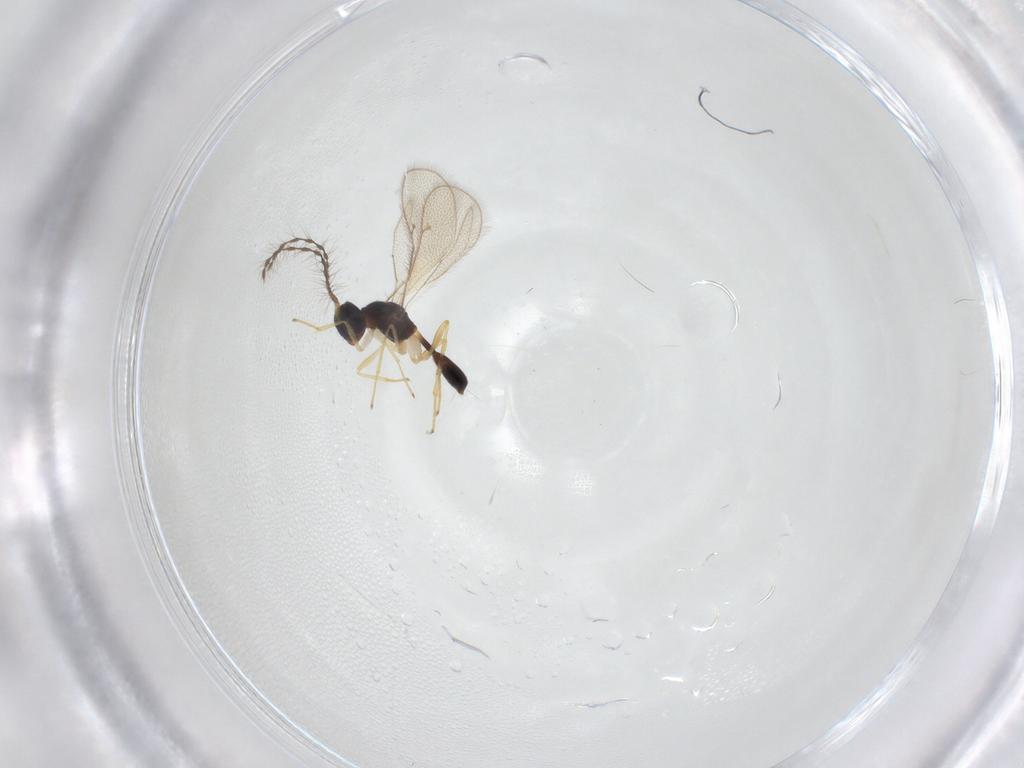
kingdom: Animalia
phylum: Arthropoda
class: Insecta
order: Hymenoptera
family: Diparidae
